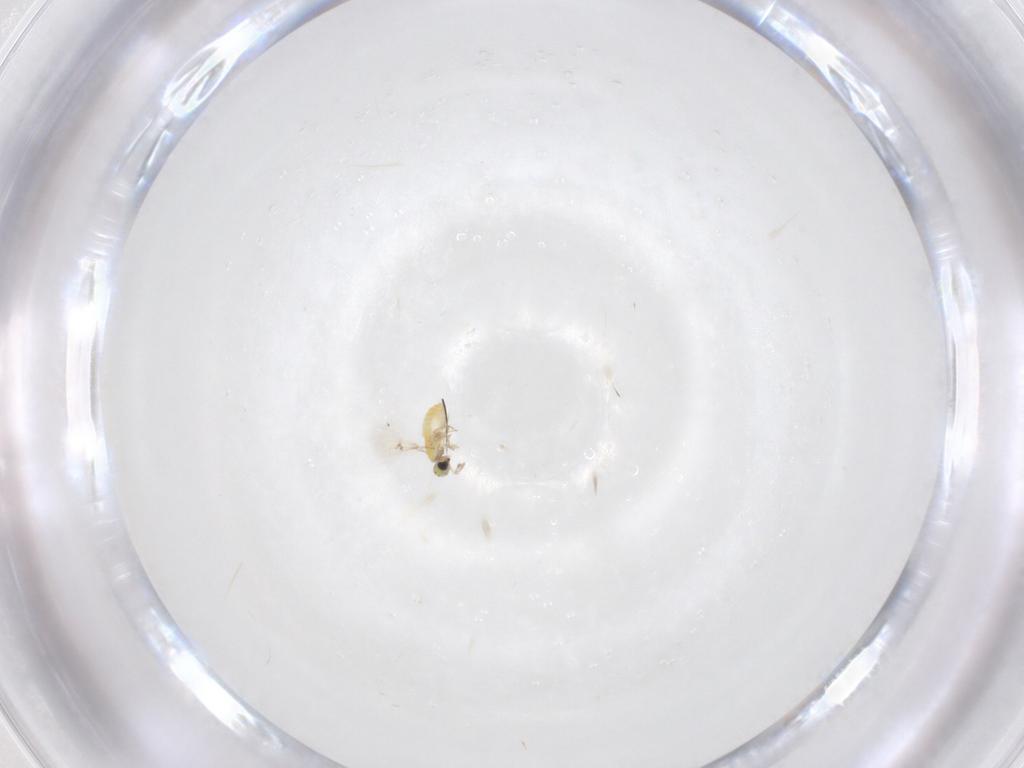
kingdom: Animalia
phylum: Arthropoda
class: Insecta
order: Hymenoptera
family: Trichogrammatidae
